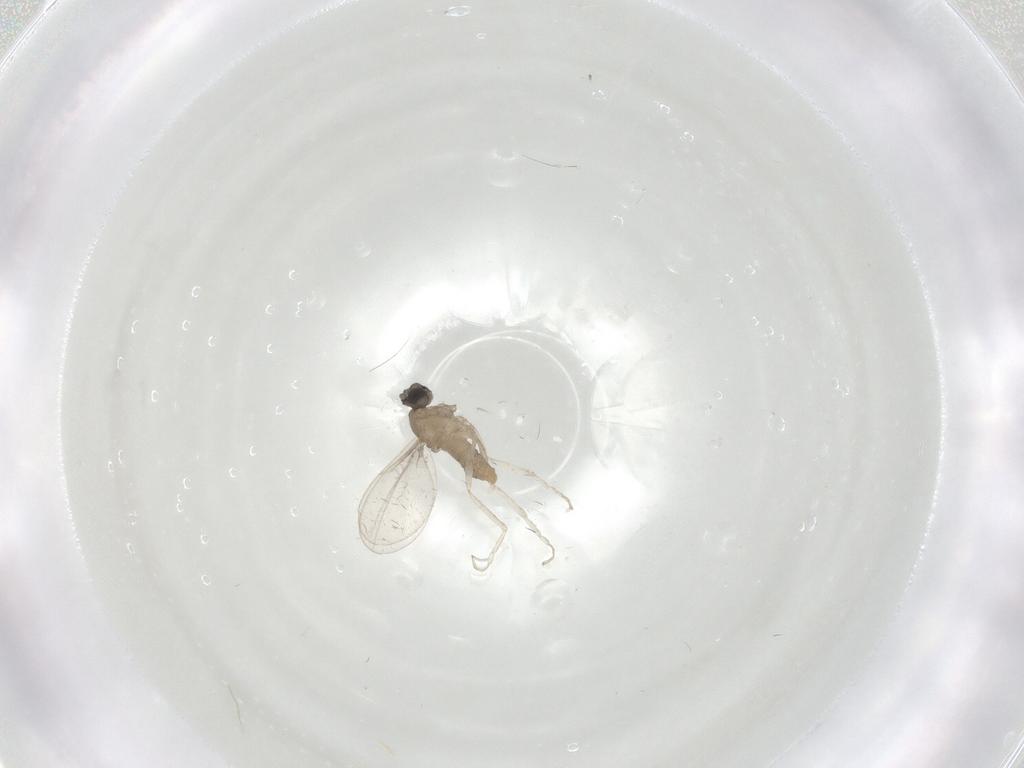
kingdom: Animalia
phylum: Arthropoda
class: Insecta
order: Diptera
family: Cecidomyiidae
